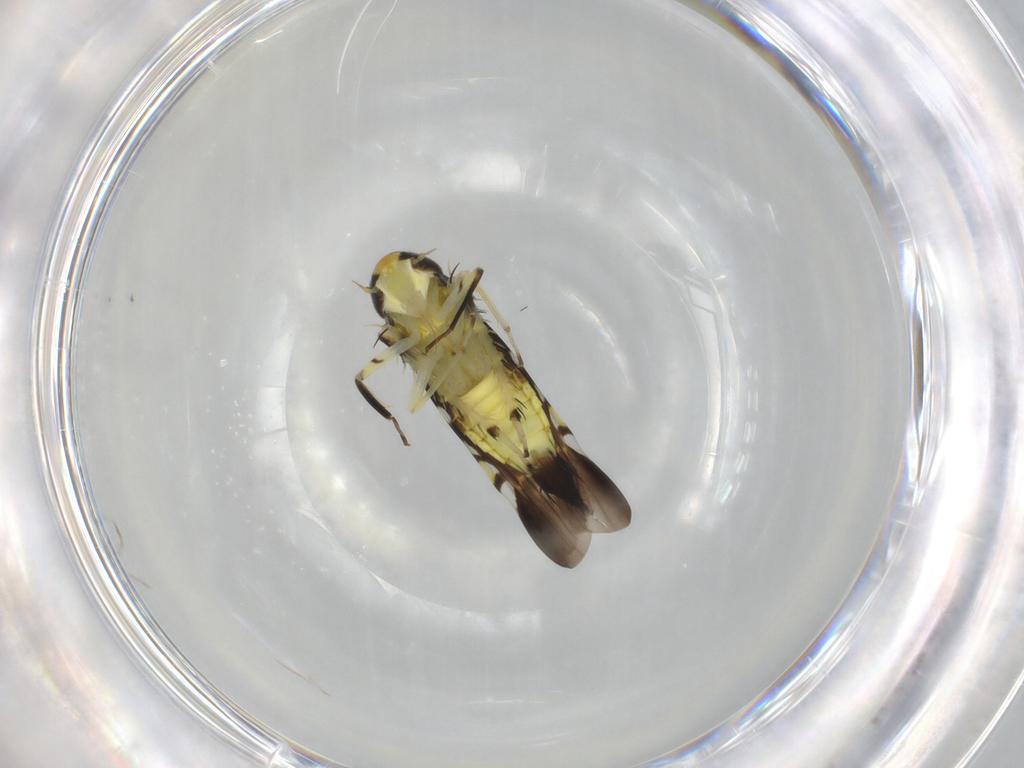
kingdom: Animalia
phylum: Arthropoda
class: Insecta
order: Hemiptera
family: Cicadellidae
